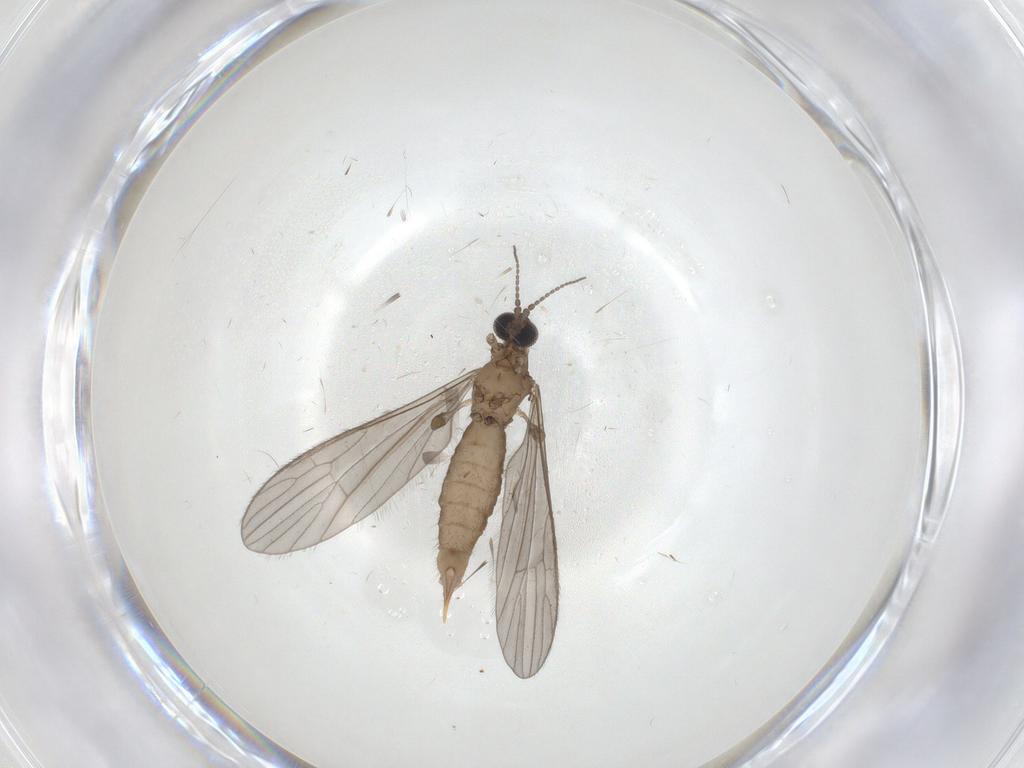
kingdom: Animalia
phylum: Arthropoda
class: Insecta
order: Diptera
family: Limoniidae
